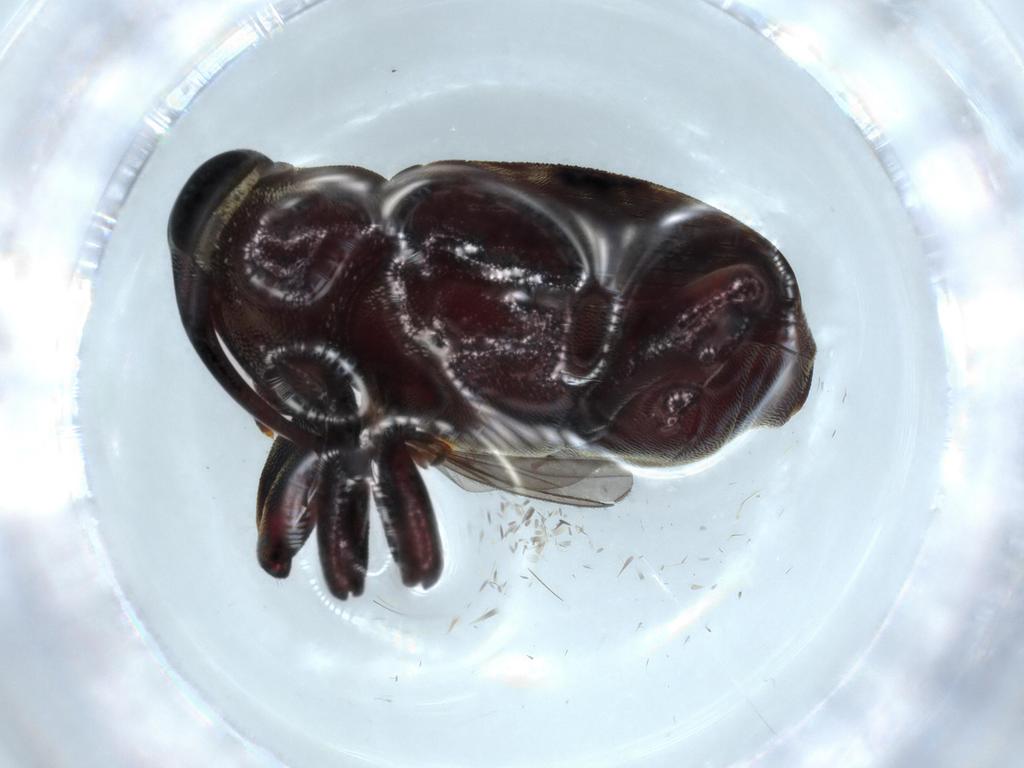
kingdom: Animalia
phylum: Arthropoda
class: Insecta
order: Coleoptera
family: Curculionidae
